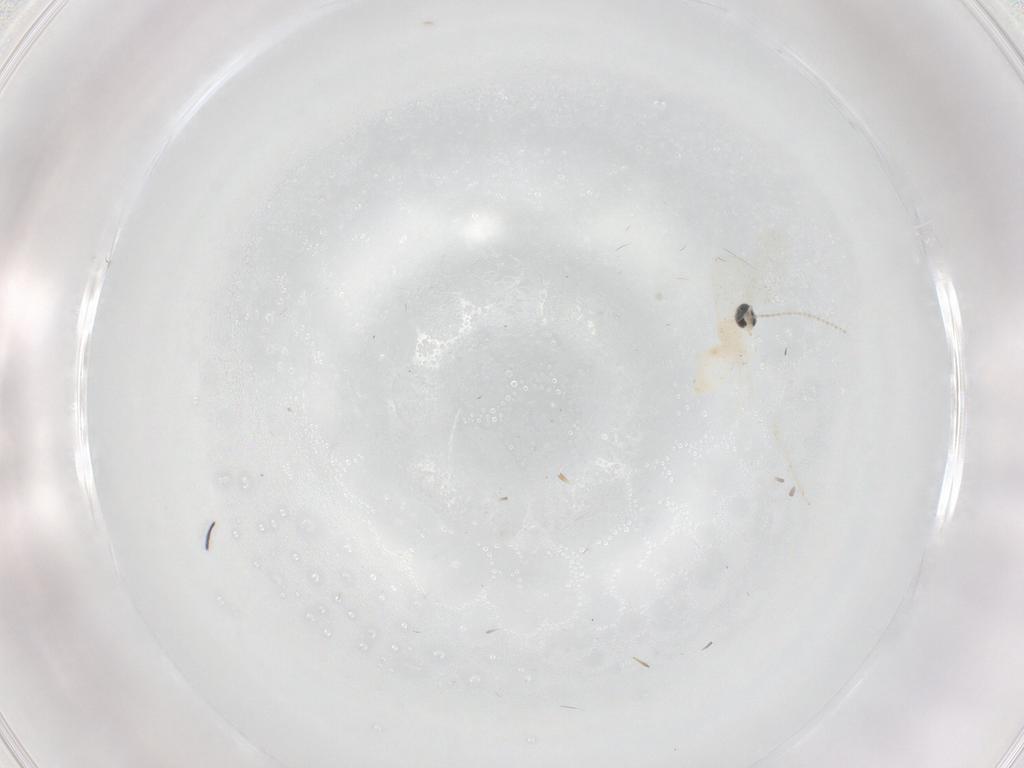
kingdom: Animalia
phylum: Arthropoda
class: Insecta
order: Diptera
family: Cecidomyiidae
